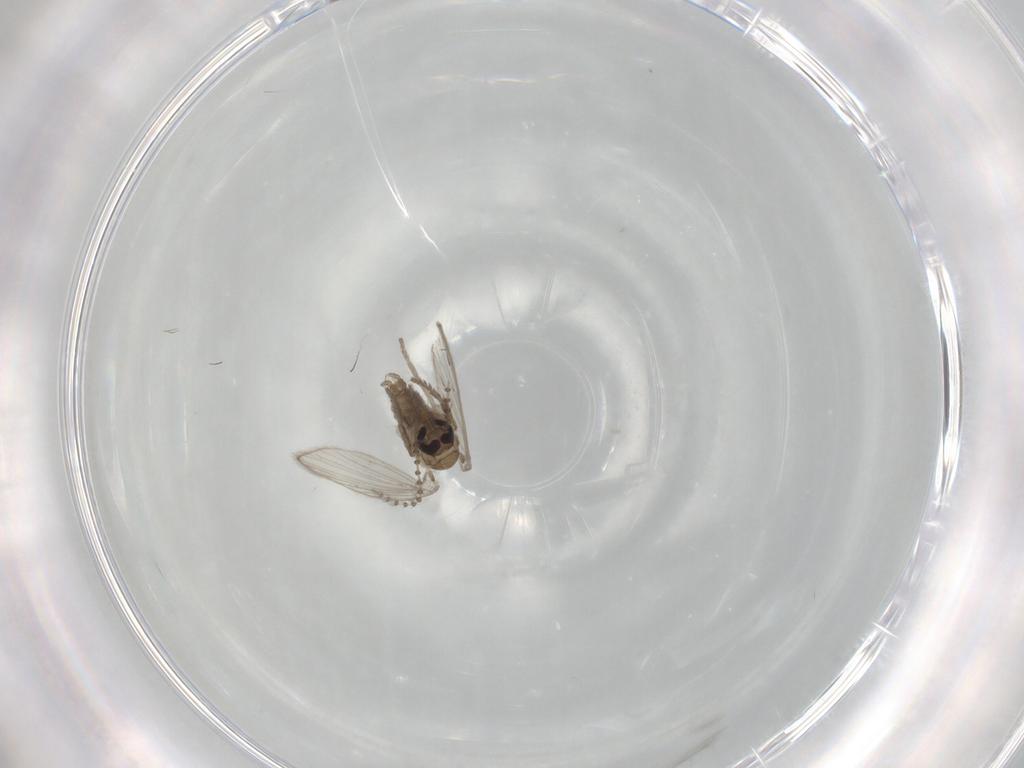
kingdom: Animalia
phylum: Arthropoda
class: Insecta
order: Diptera
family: Psychodidae
